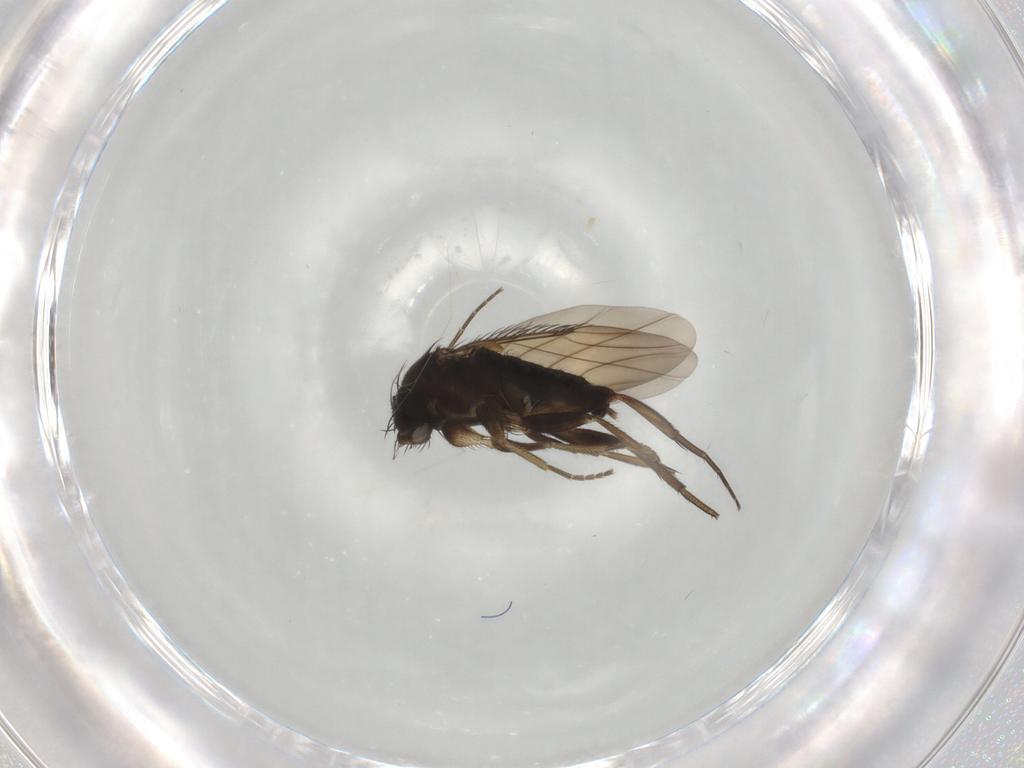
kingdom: Animalia
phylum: Arthropoda
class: Insecta
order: Diptera
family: Phoridae
